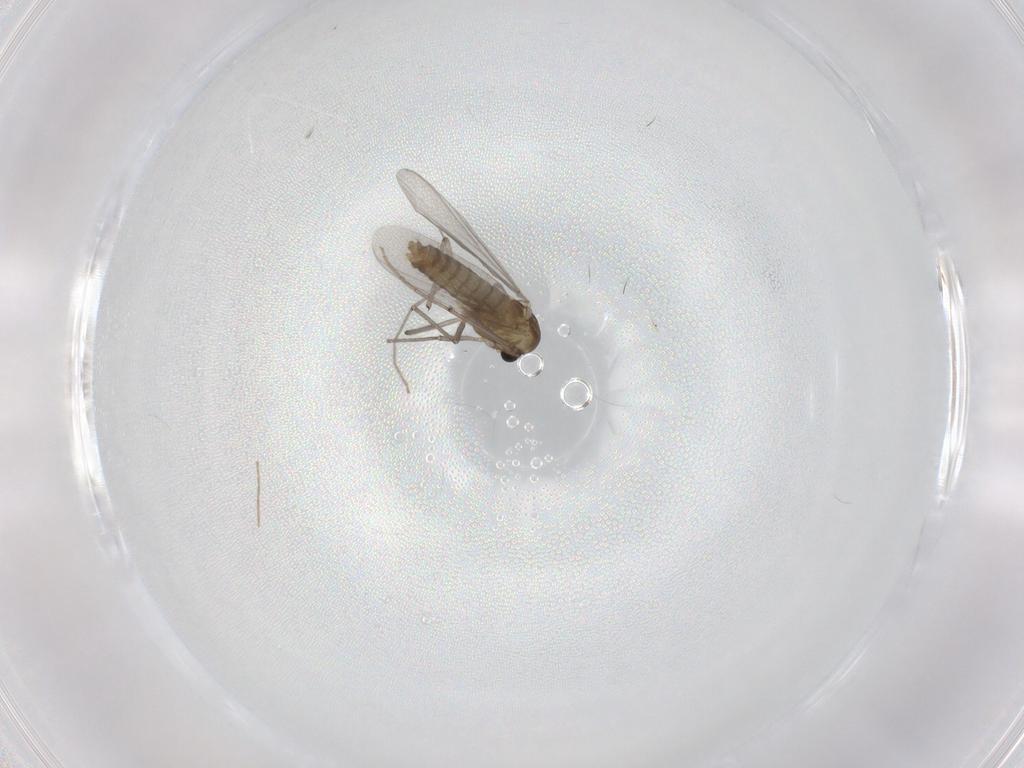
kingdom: Animalia
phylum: Arthropoda
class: Insecta
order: Diptera
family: Chironomidae
